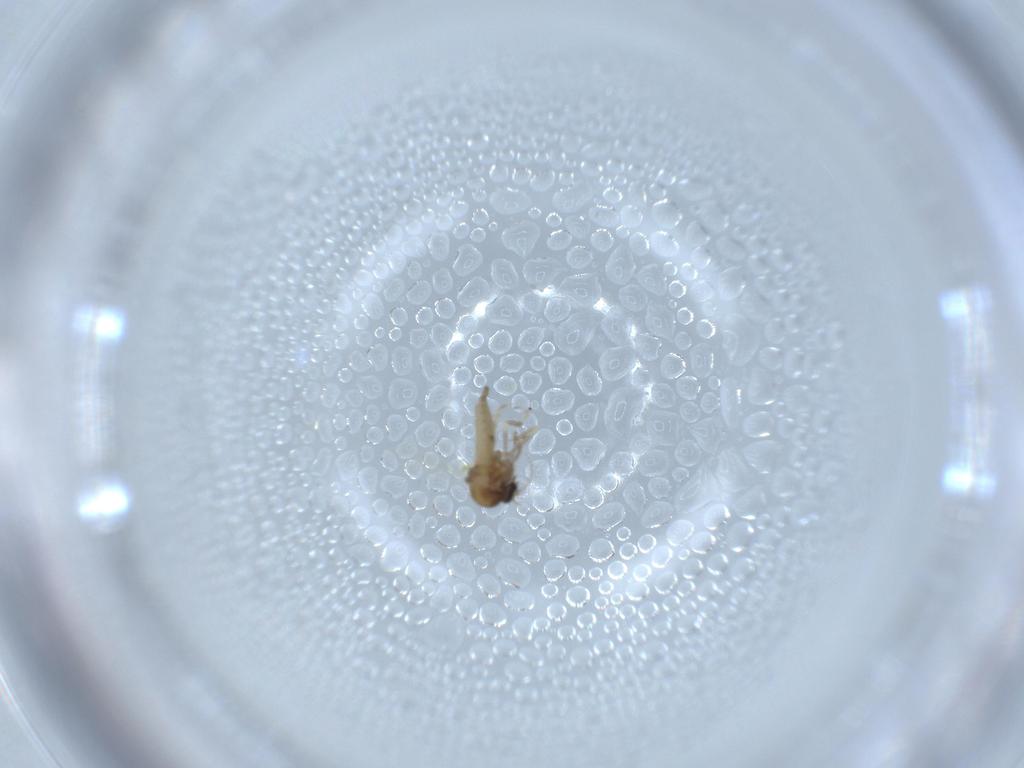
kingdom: Animalia
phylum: Arthropoda
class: Insecta
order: Diptera
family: Ceratopogonidae
